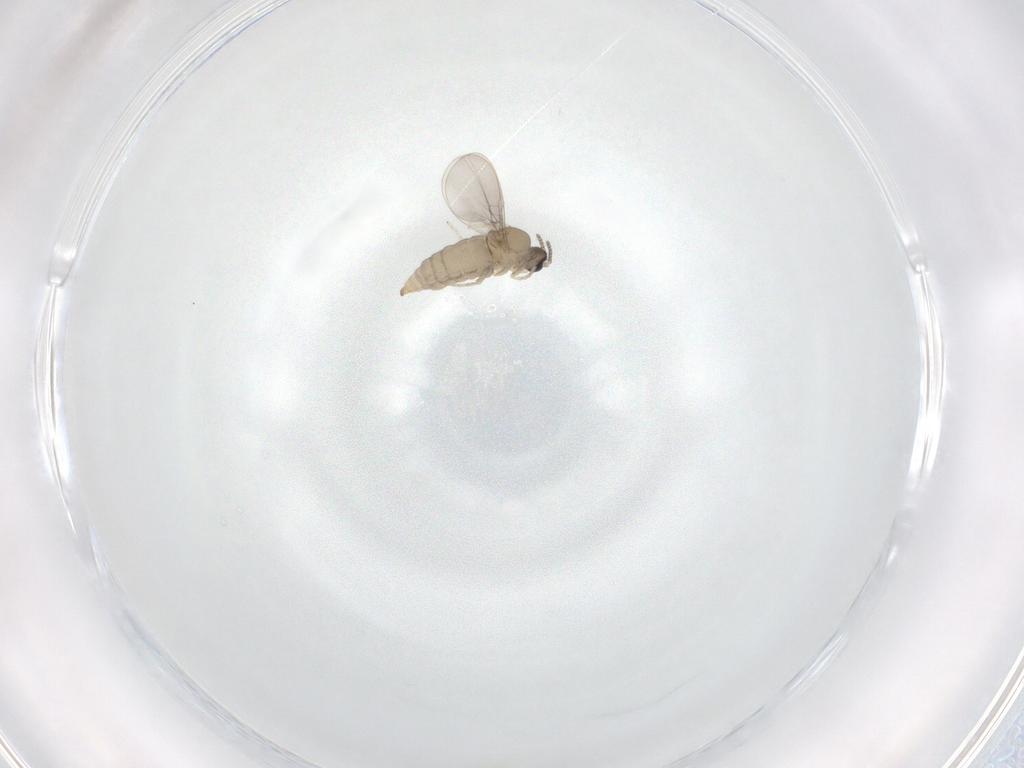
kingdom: Animalia
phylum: Arthropoda
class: Insecta
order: Diptera
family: Cecidomyiidae
